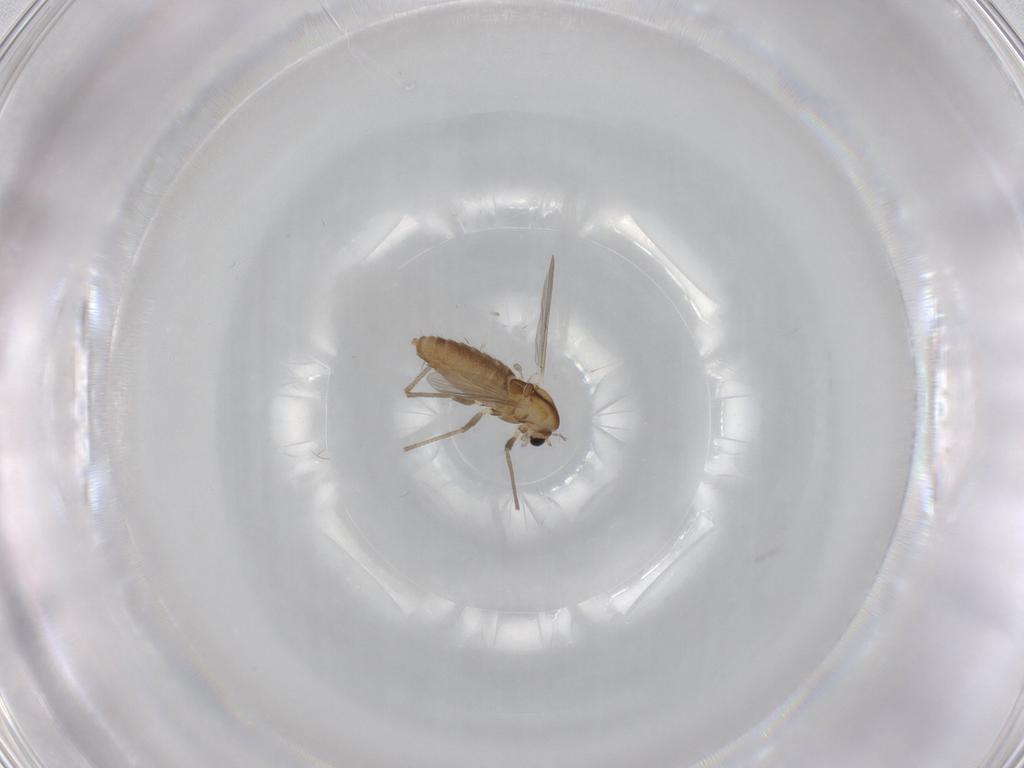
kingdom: Animalia
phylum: Arthropoda
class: Insecta
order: Diptera
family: Chironomidae
